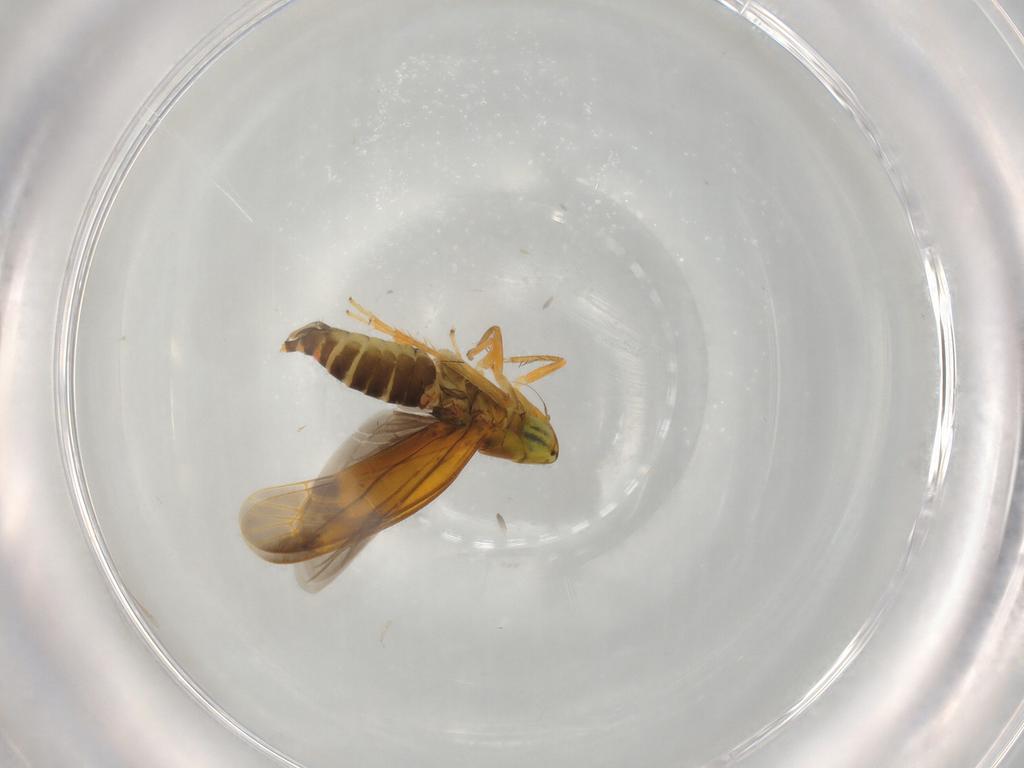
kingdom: Animalia
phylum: Arthropoda
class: Insecta
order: Hemiptera
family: Cicadellidae
